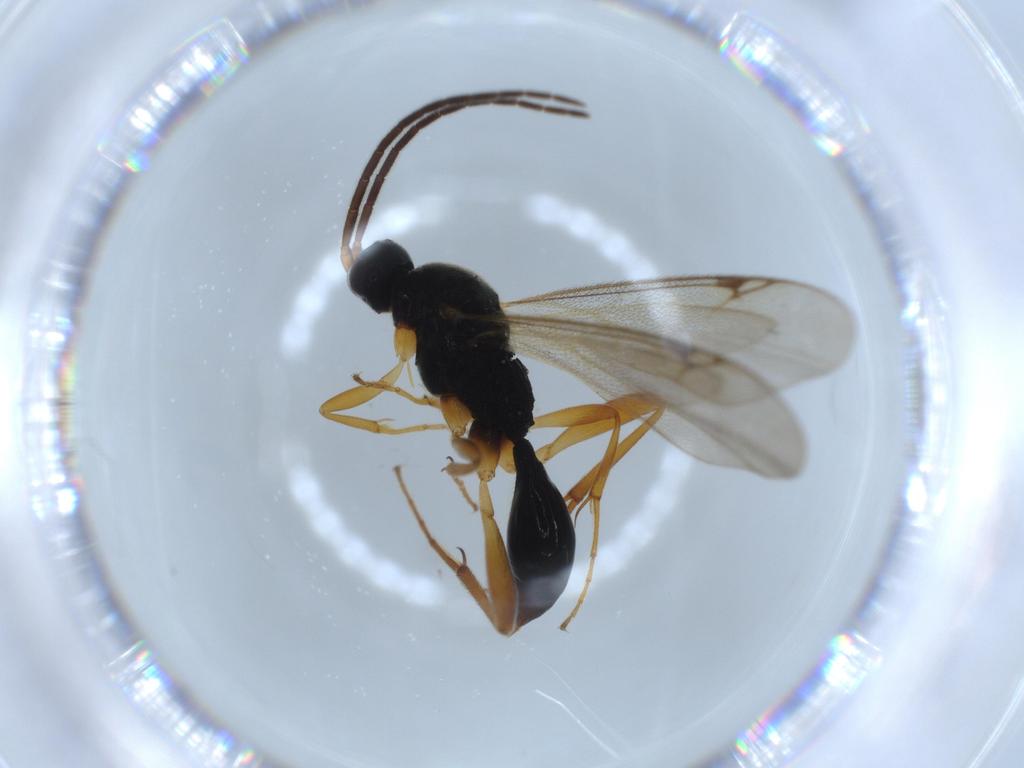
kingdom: Animalia
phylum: Arthropoda
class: Insecta
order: Hymenoptera
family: Proctotrupidae
